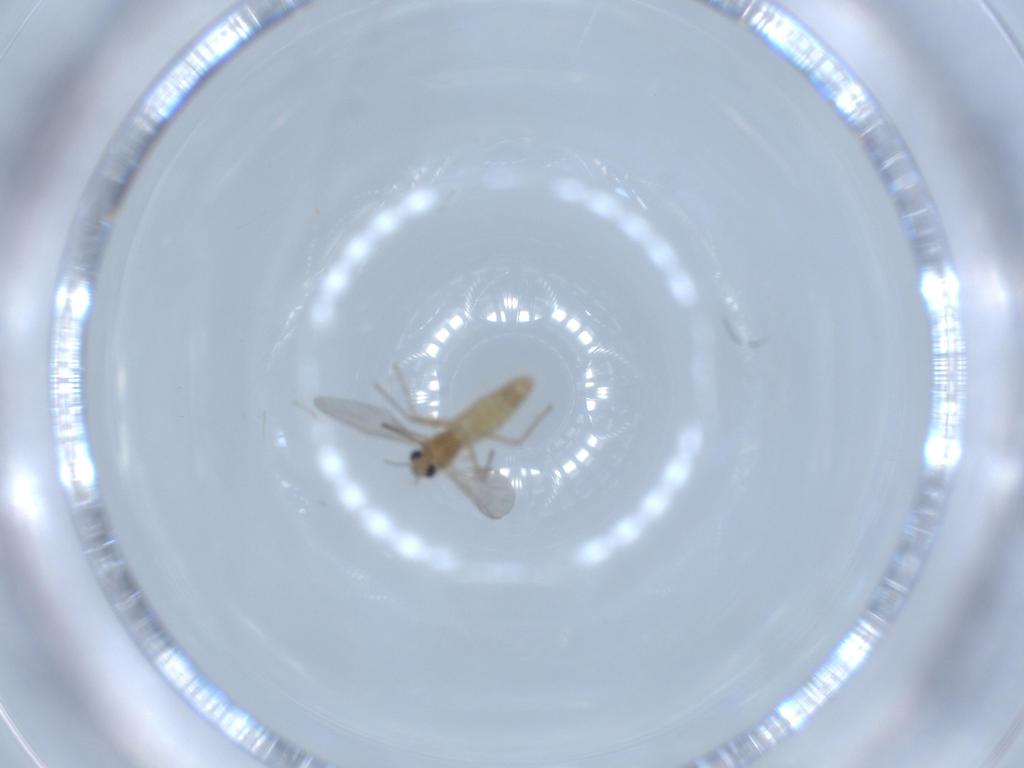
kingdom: Animalia
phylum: Arthropoda
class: Insecta
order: Diptera
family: Chironomidae
